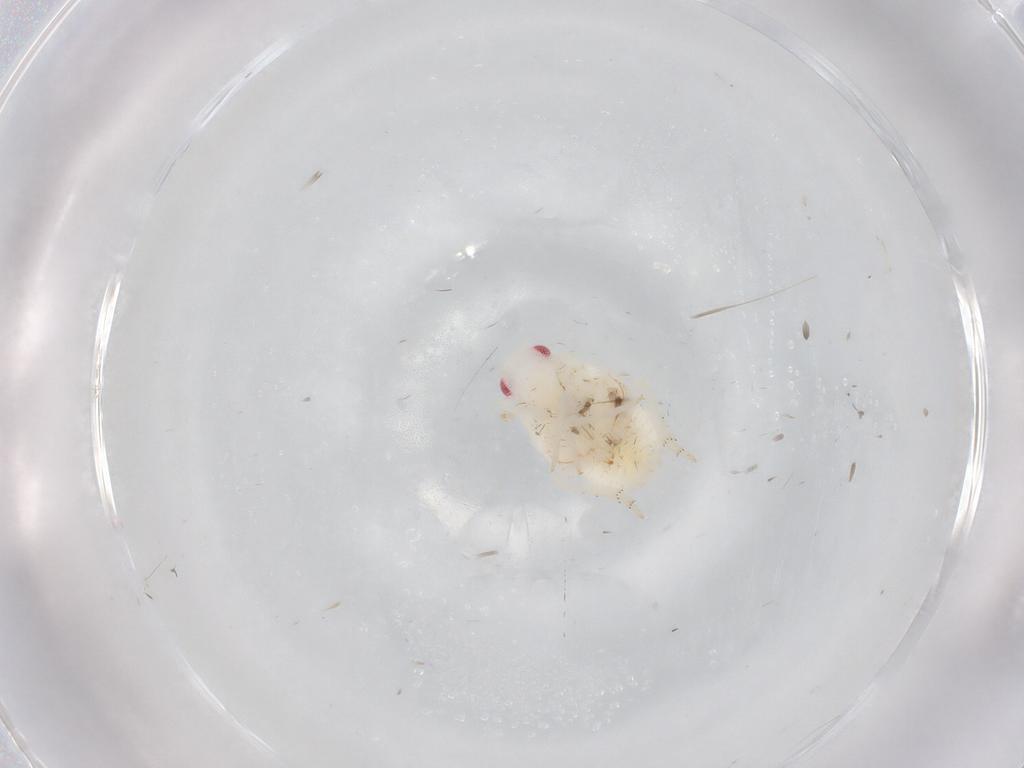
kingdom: Animalia
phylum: Arthropoda
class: Insecta
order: Hemiptera
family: Flatidae
